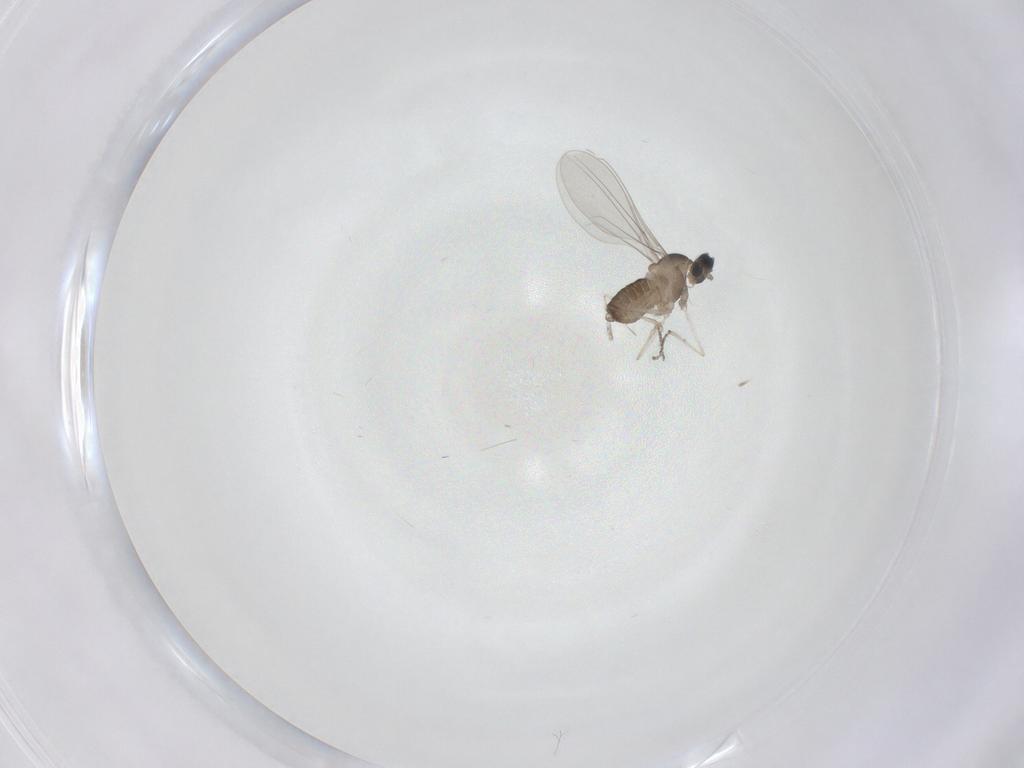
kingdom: Animalia
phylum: Arthropoda
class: Insecta
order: Diptera
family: Cecidomyiidae
